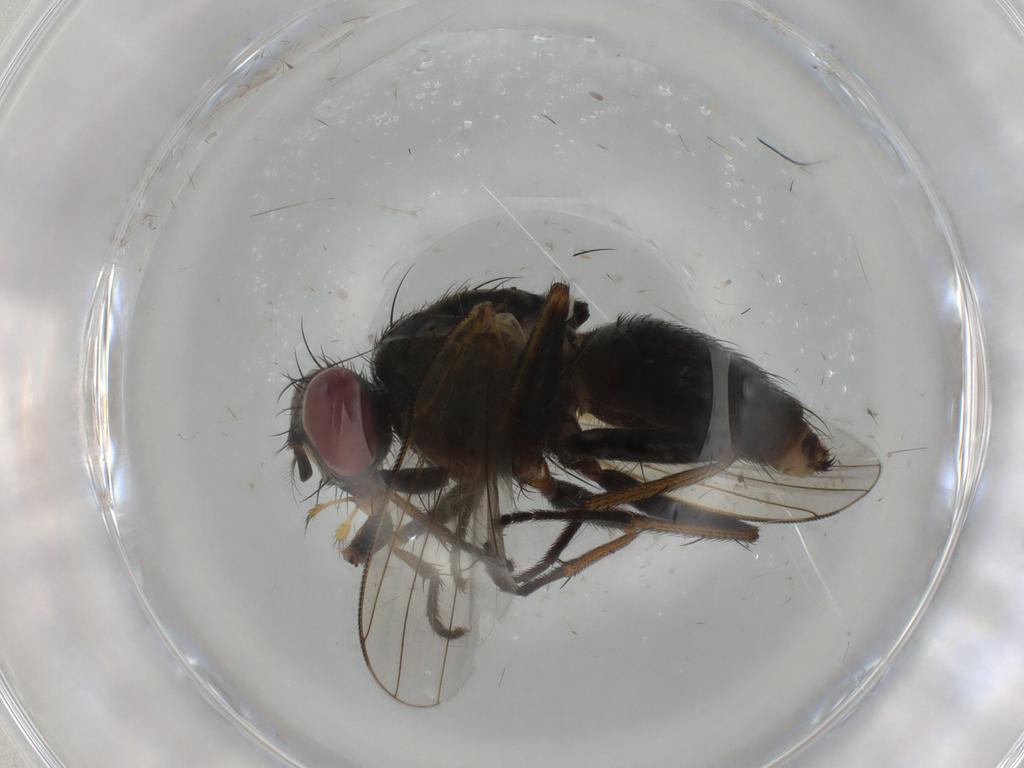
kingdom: Animalia
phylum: Arthropoda
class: Insecta
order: Diptera
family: Muscidae
